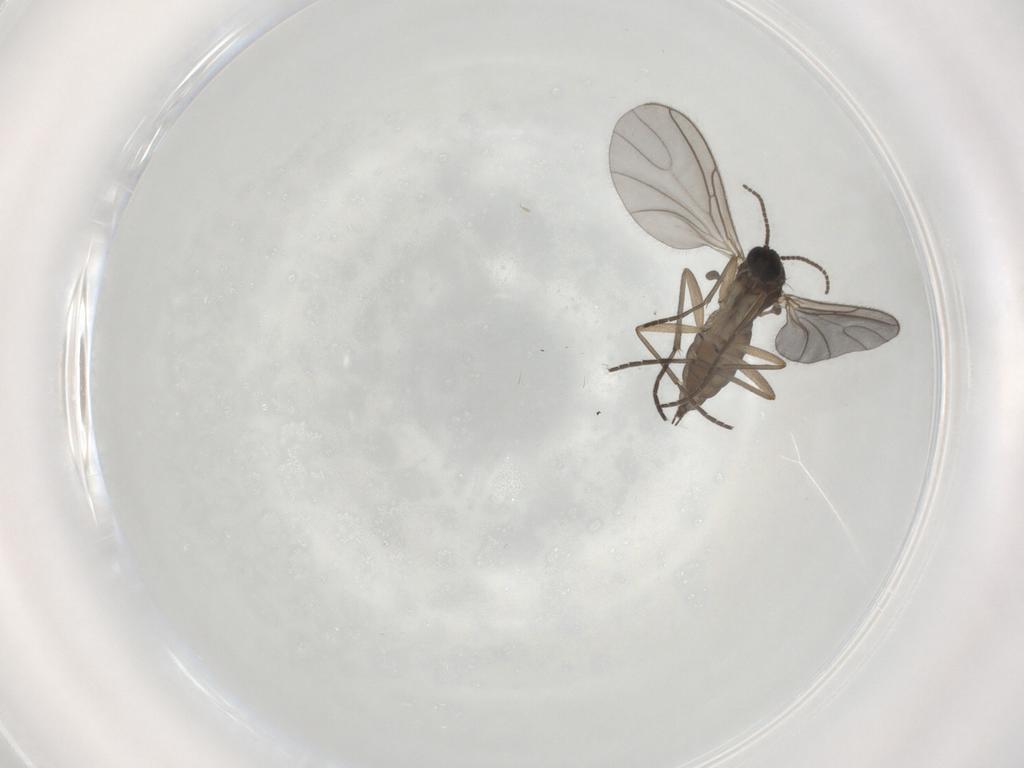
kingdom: Animalia
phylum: Arthropoda
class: Insecta
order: Diptera
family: Sciaridae
